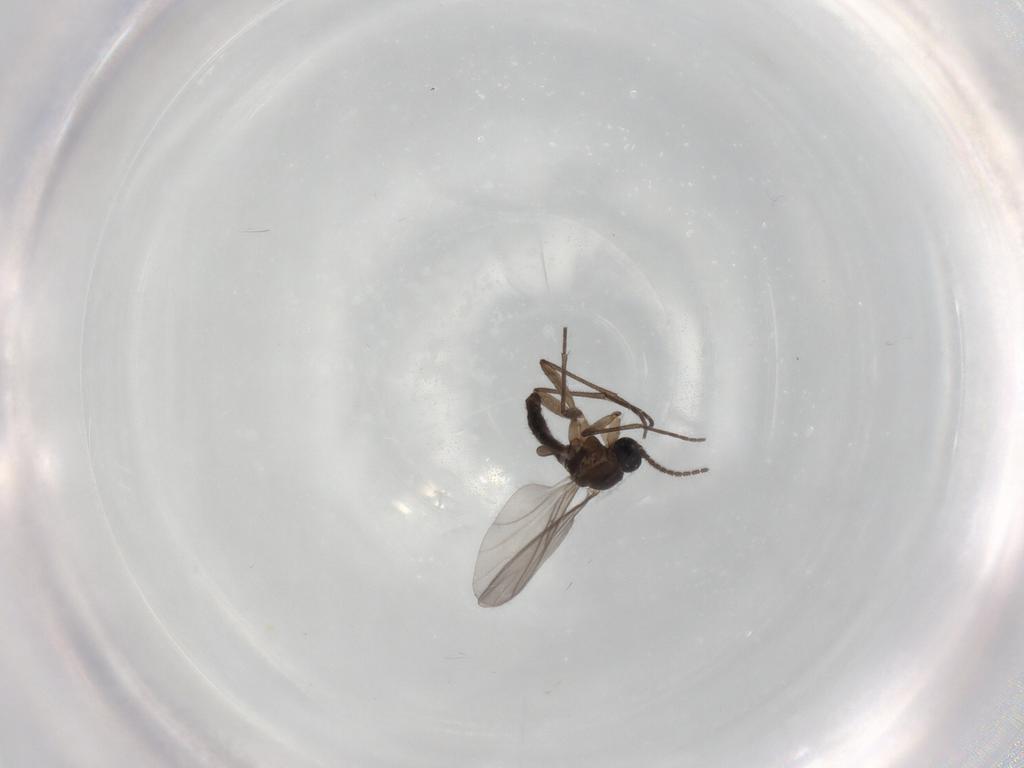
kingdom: Animalia
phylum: Arthropoda
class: Insecta
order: Diptera
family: Sciaridae
